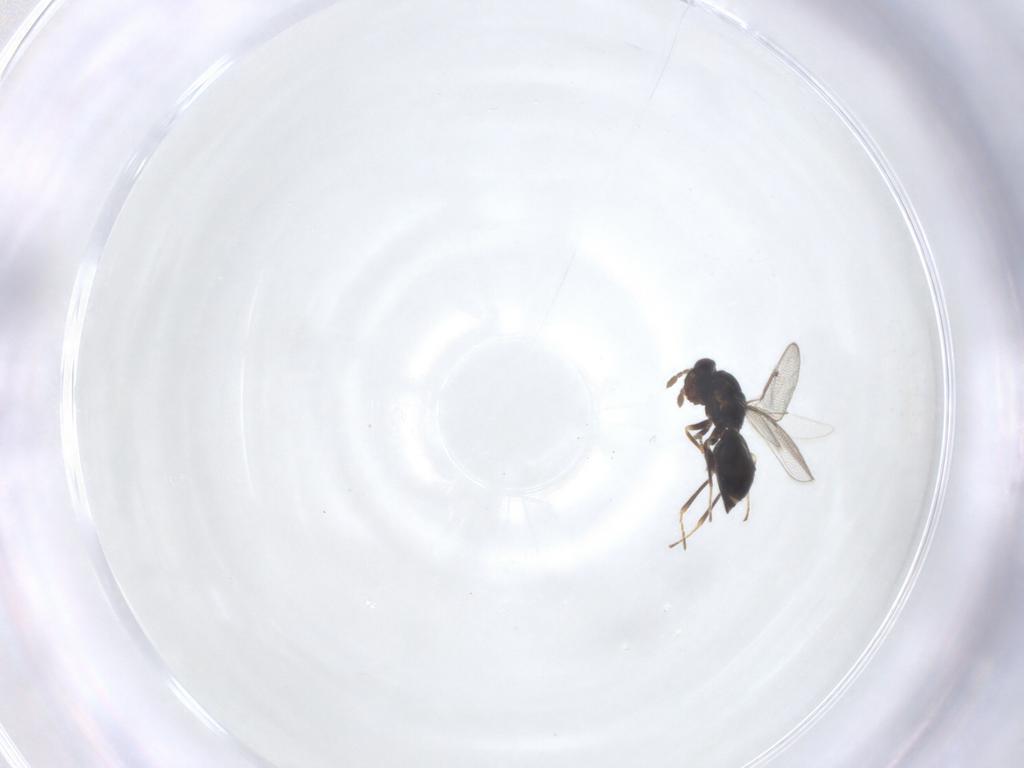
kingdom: Animalia
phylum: Arthropoda
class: Insecta
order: Hymenoptera
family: Eulophidae
